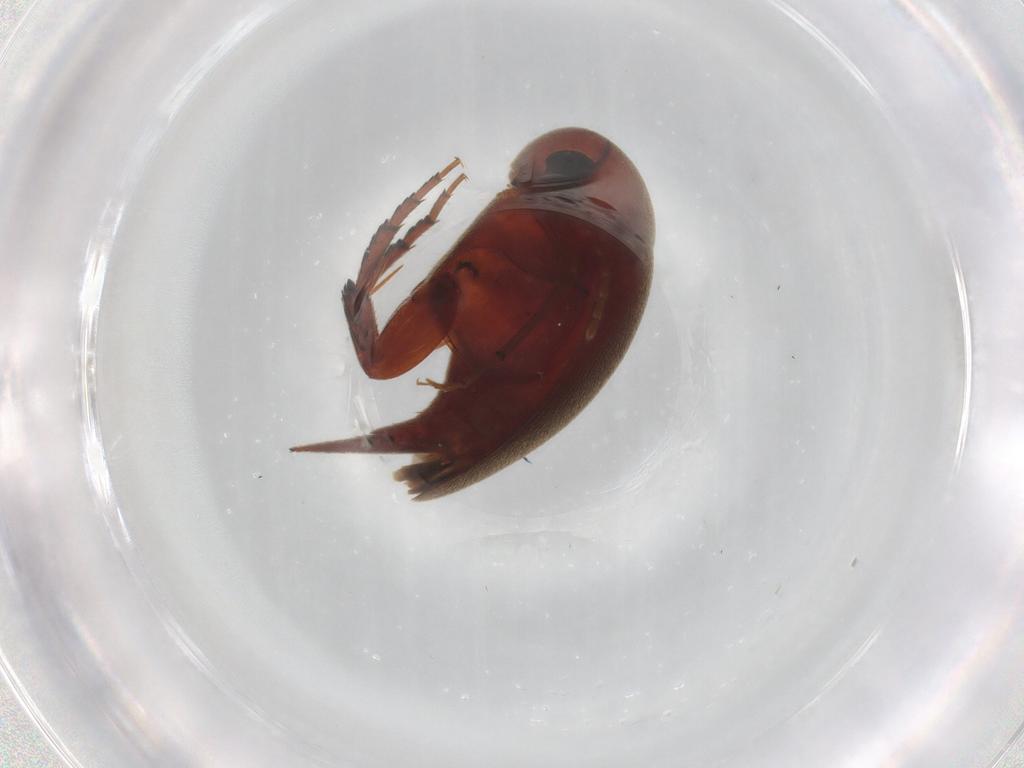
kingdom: Animalia
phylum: Arthropoda
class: Insecta
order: Coleoptera
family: Mordellidae
